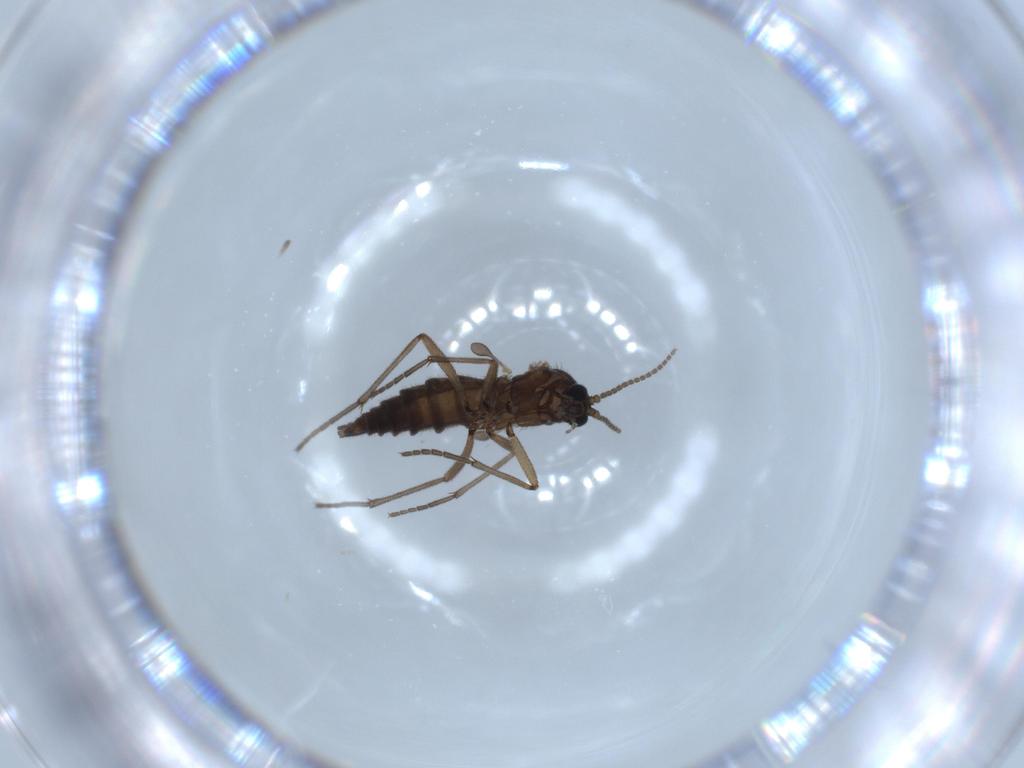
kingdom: Animalia
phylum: Arthropoda
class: Insecta
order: Diptera
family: Sciaridae
